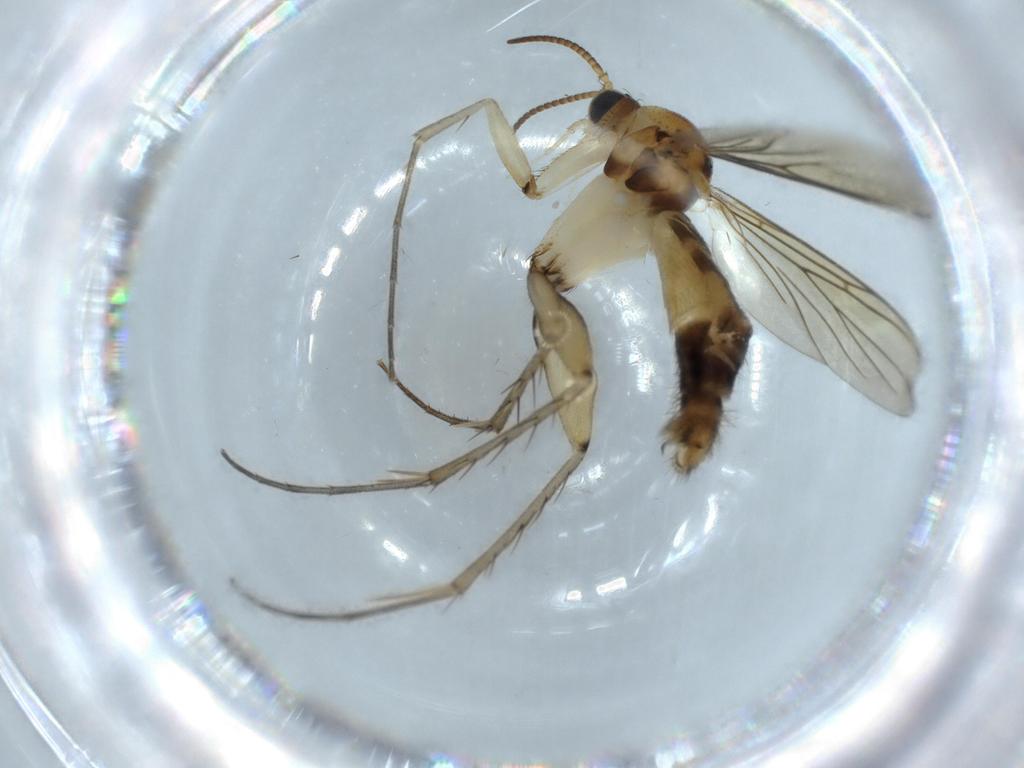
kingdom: Animalia
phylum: Arthropoda
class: Insecta
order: Diptera
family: Mycetophilidae
